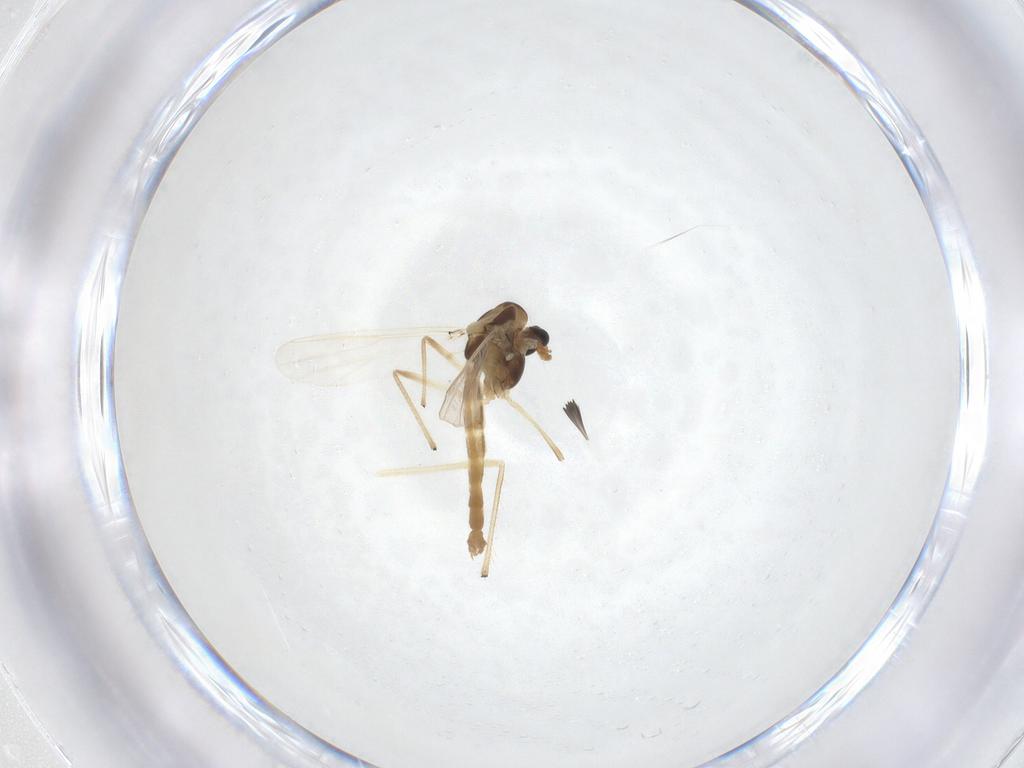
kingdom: Animalia
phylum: Arthropoda
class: Insecta
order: Diptera
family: Chironomidae
